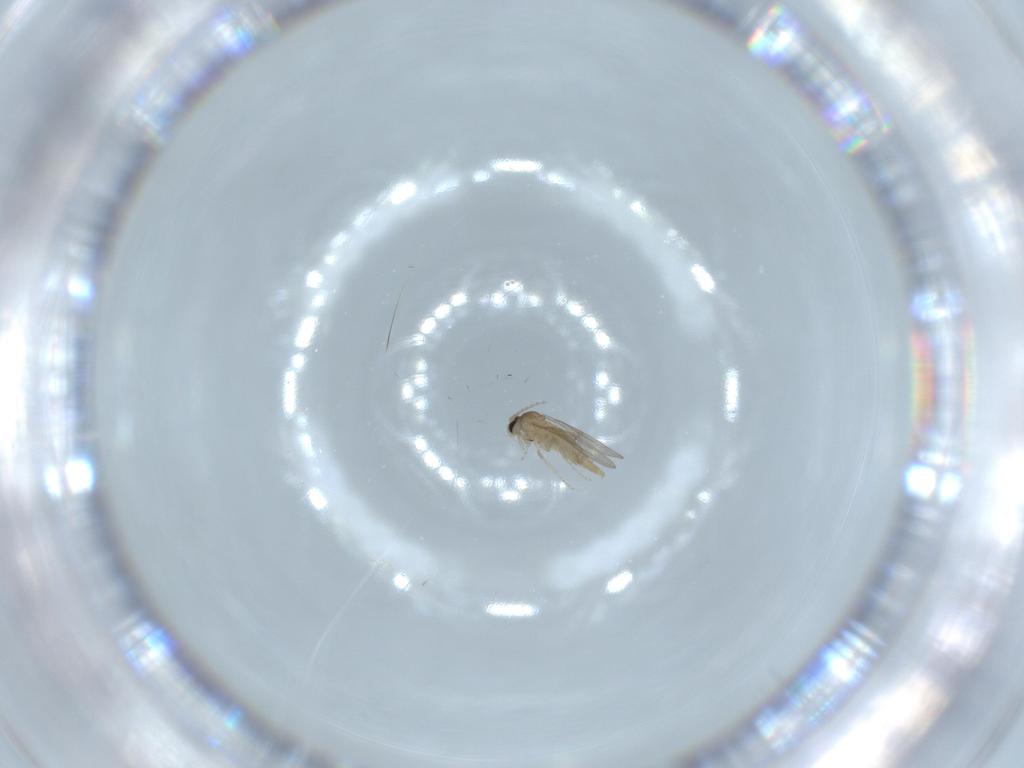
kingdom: Animalia
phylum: Arthropoda
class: Insecta
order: Diptera
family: Cecidomyiidae
